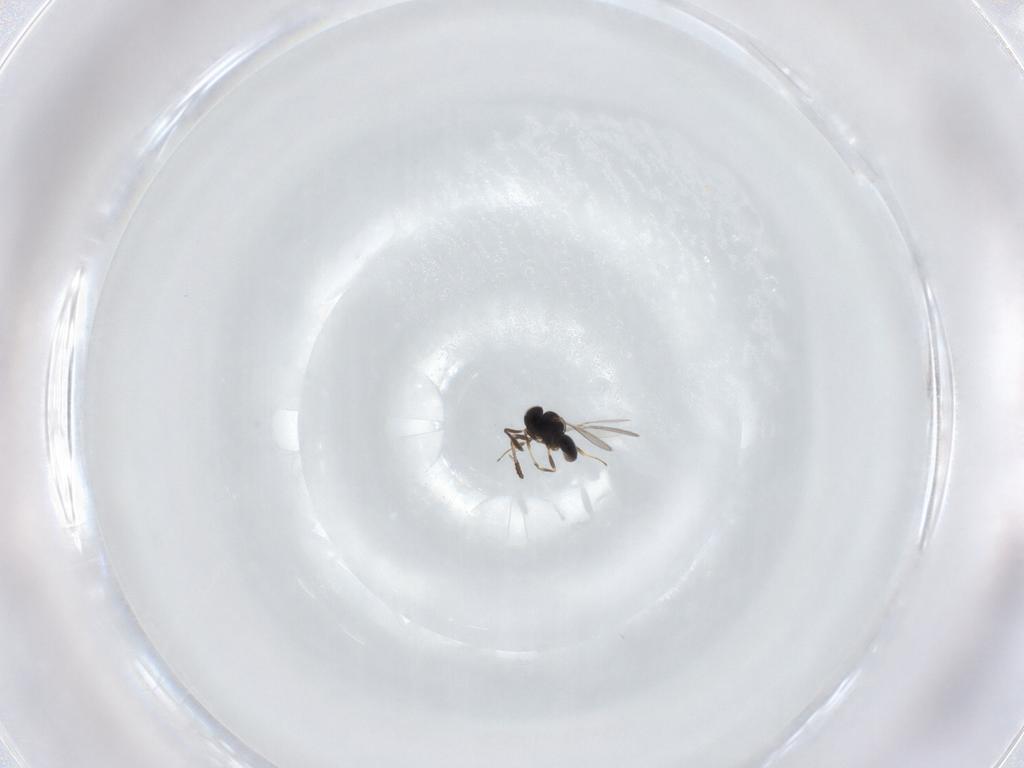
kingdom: Animalia
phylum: Arthropoda
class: Insecta
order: Hymenoptera
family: Scelionidae
